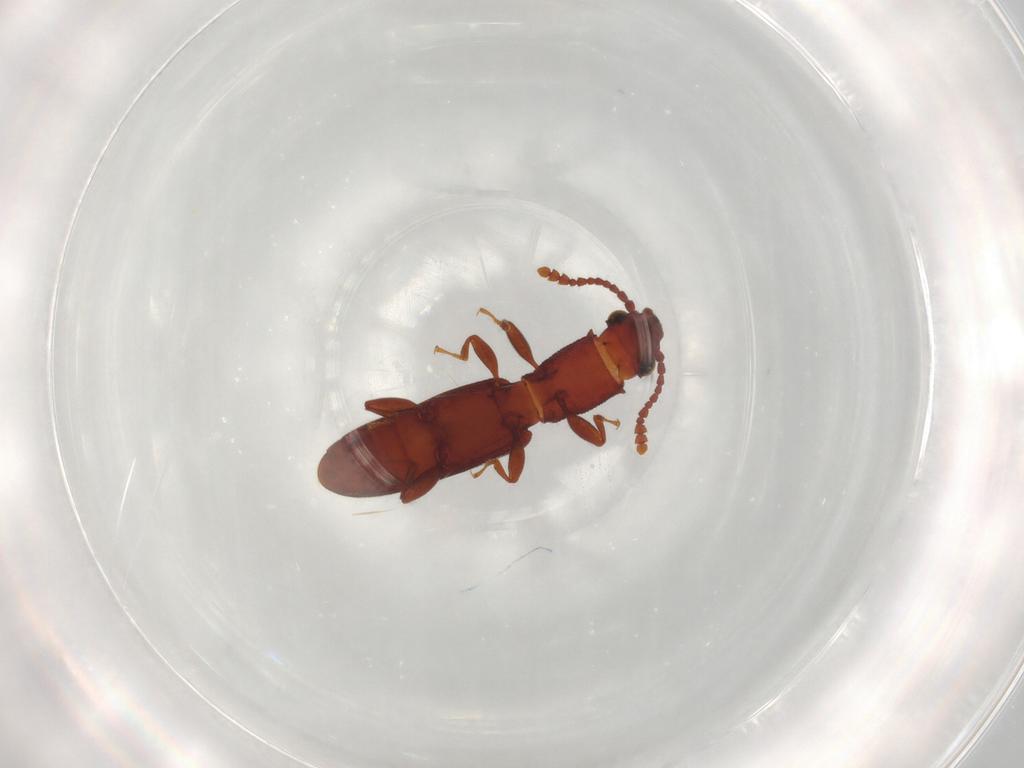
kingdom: Animalia
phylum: Arthropoda
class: Insecta
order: Coleoptera
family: Silvanidae
